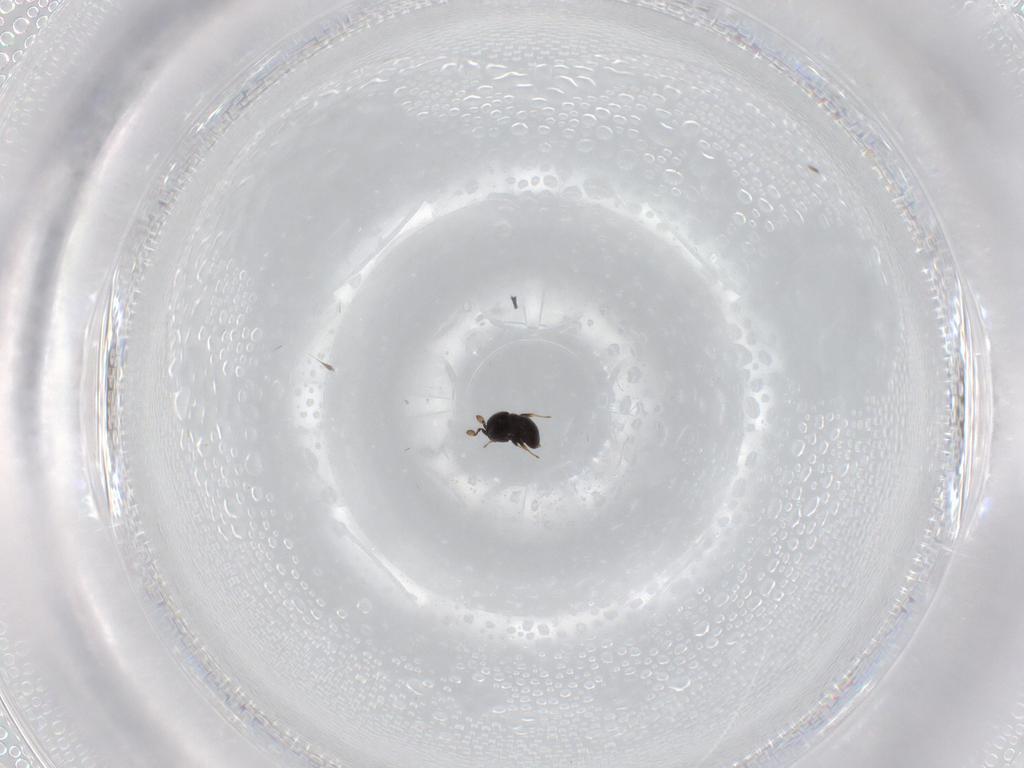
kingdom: Animalia
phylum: Arthropoda
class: Insecta
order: Hymenoptera
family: Scelionidae
